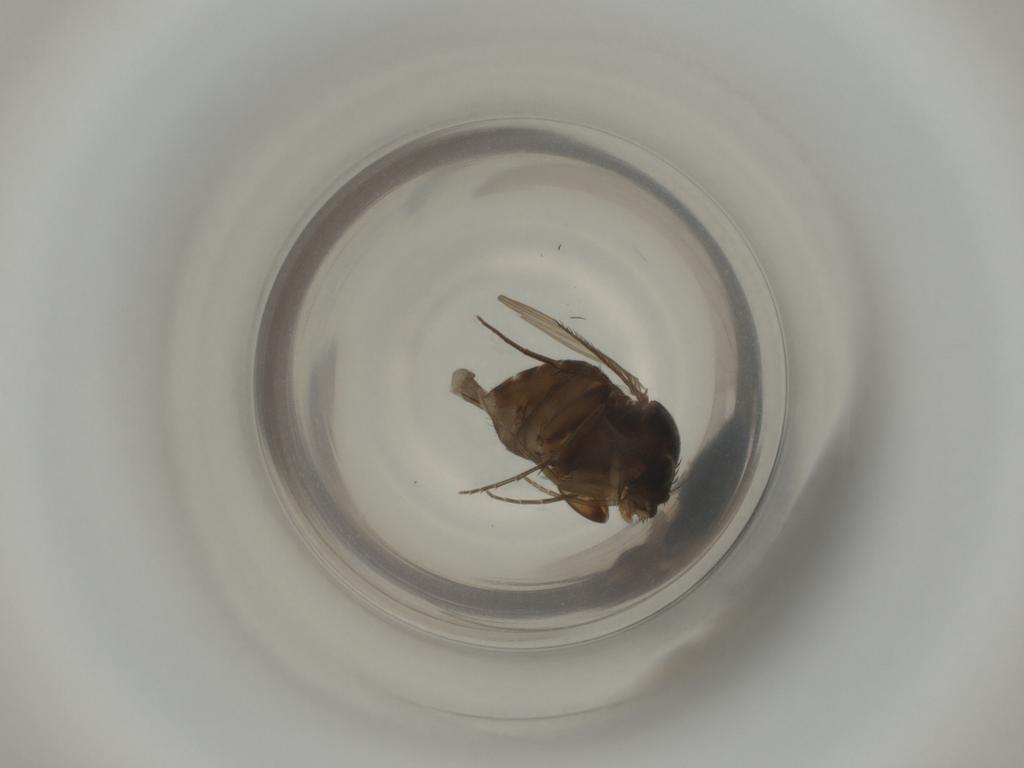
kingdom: Animalia
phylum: Arthropoda
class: Insecta
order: Diptera
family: Phoridae
